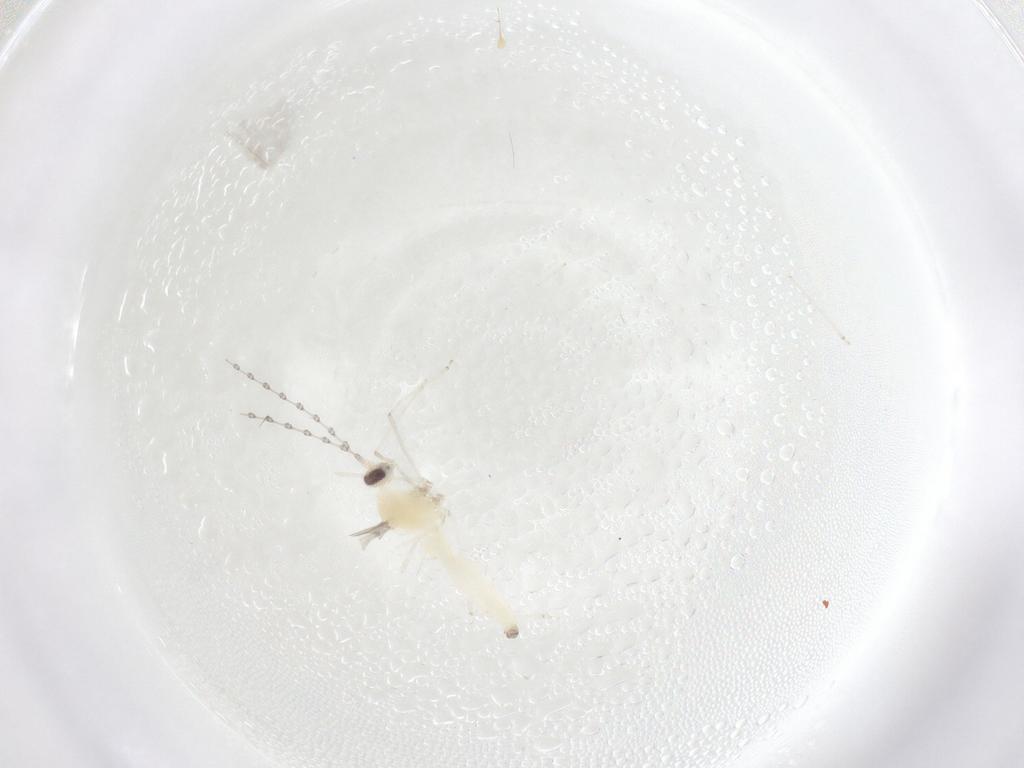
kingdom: Animalia
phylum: Arthropoda
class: Insecta
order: Diptera
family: Cecidomyiidae
